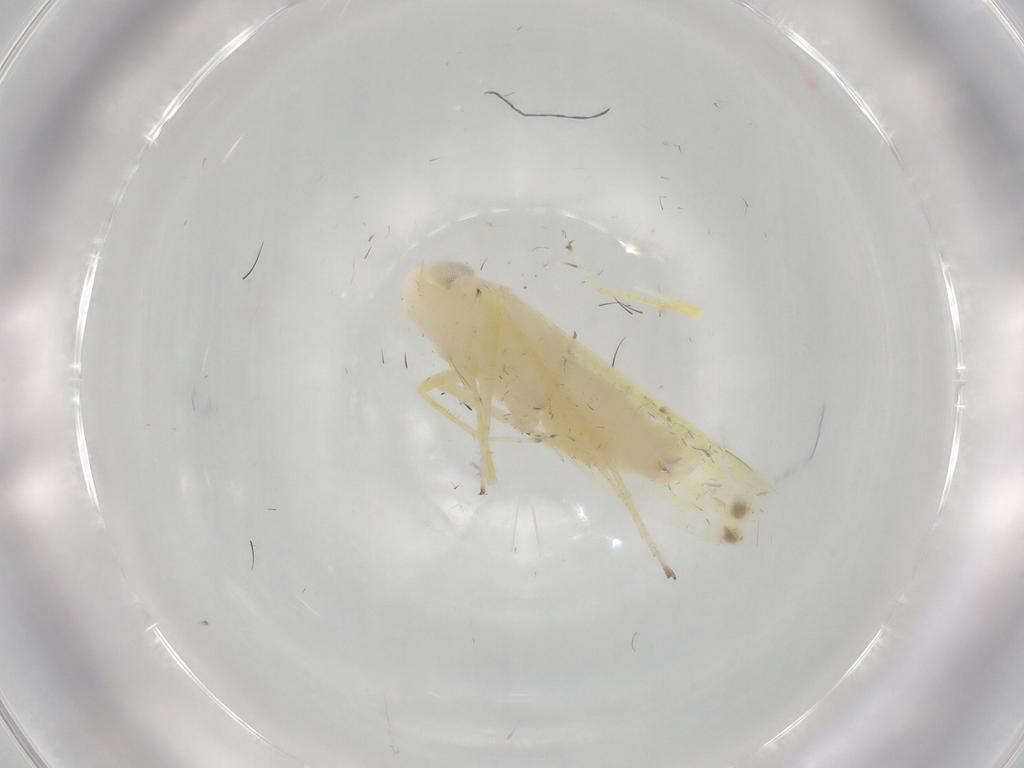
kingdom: Animalia
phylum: Arthropoda
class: Insecta
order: Hemiptera
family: Cicadellidae
